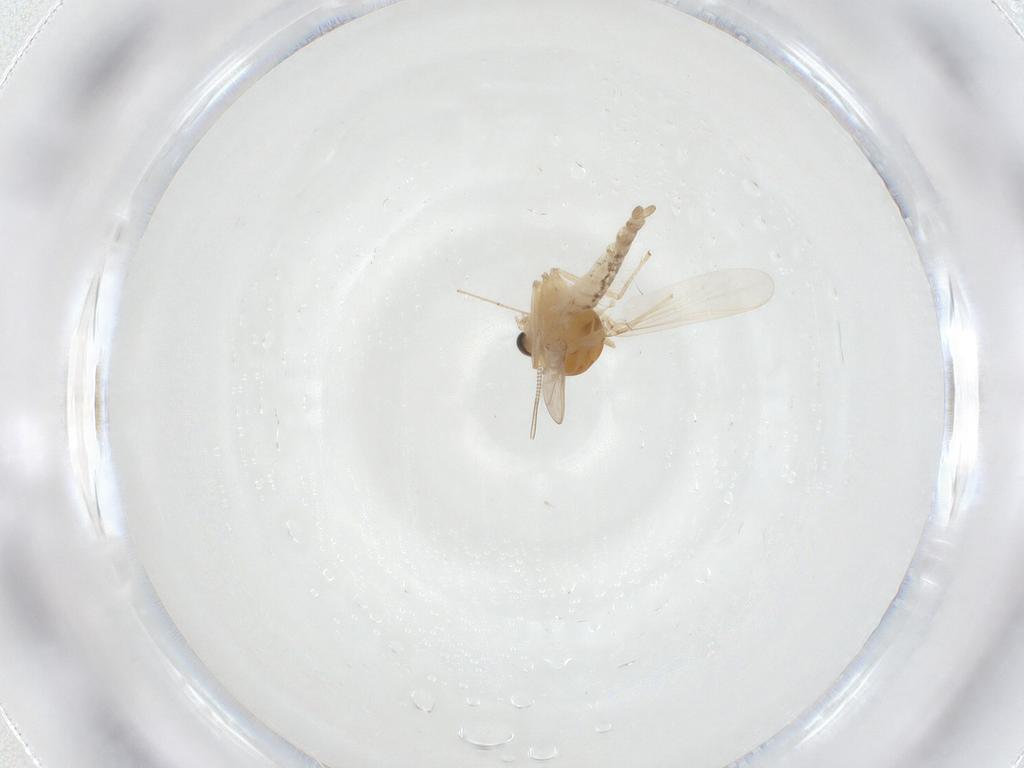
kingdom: Animalia
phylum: Arthropoda
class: Insecta
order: Diptera
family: Chironomidae
